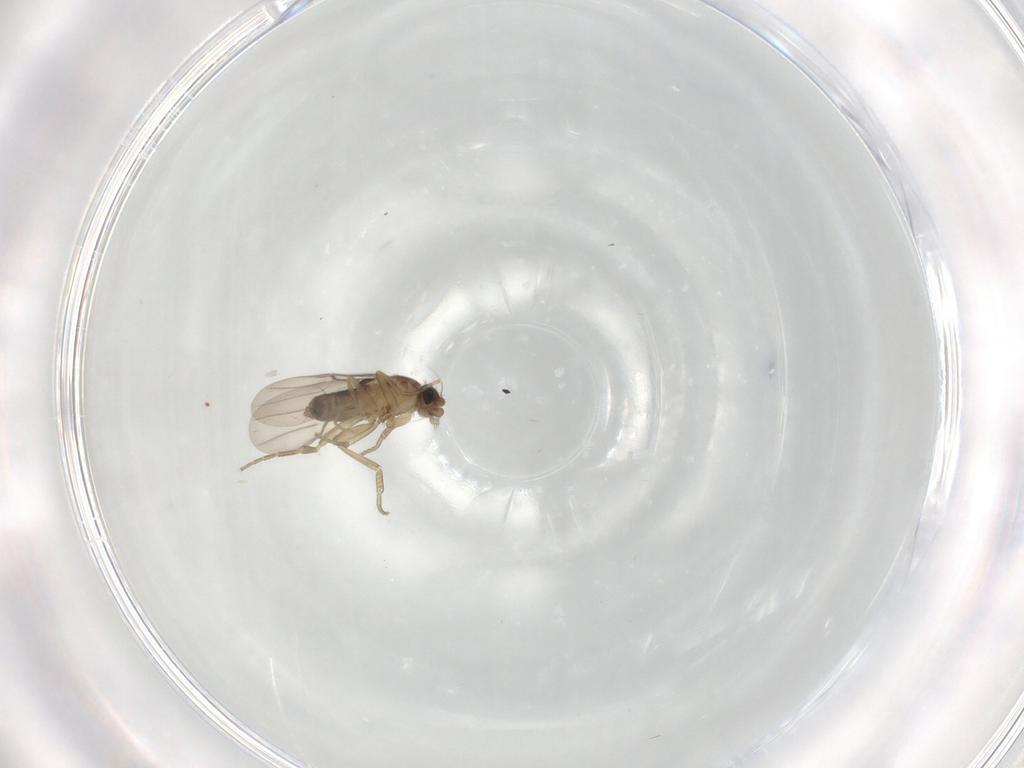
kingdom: Animalia
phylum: Arthropoda
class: Insecta
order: Diptera
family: Phoridae
